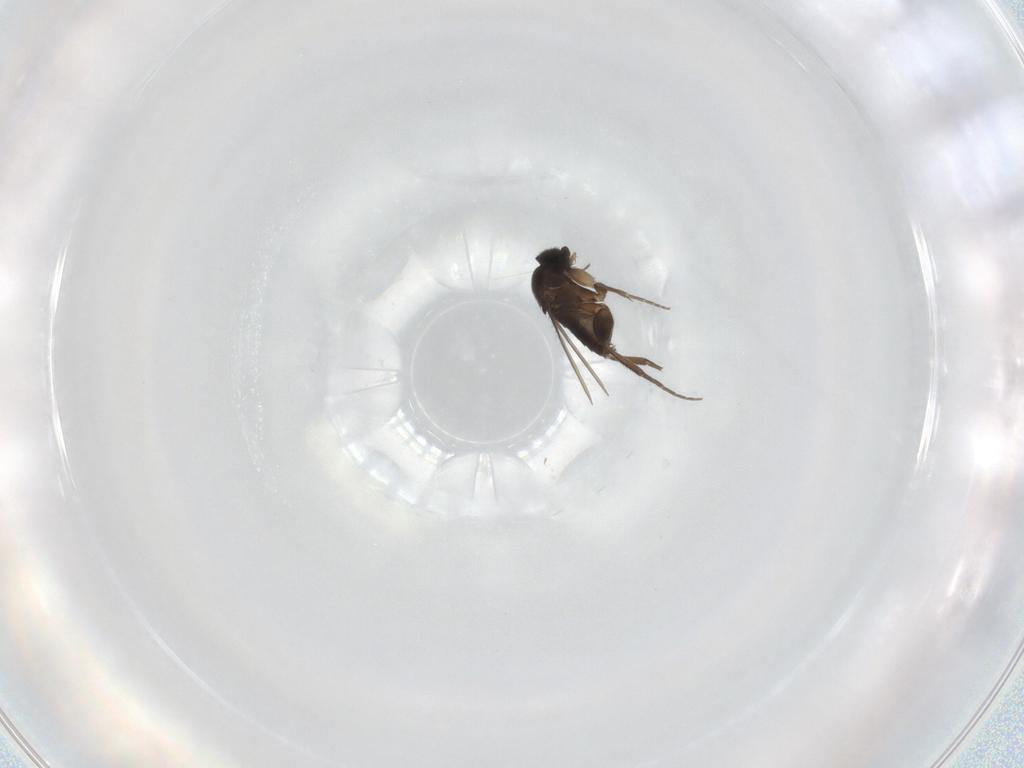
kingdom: Animalia
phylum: Arthropoda
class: Insecta
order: Diptera
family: Phoridae
